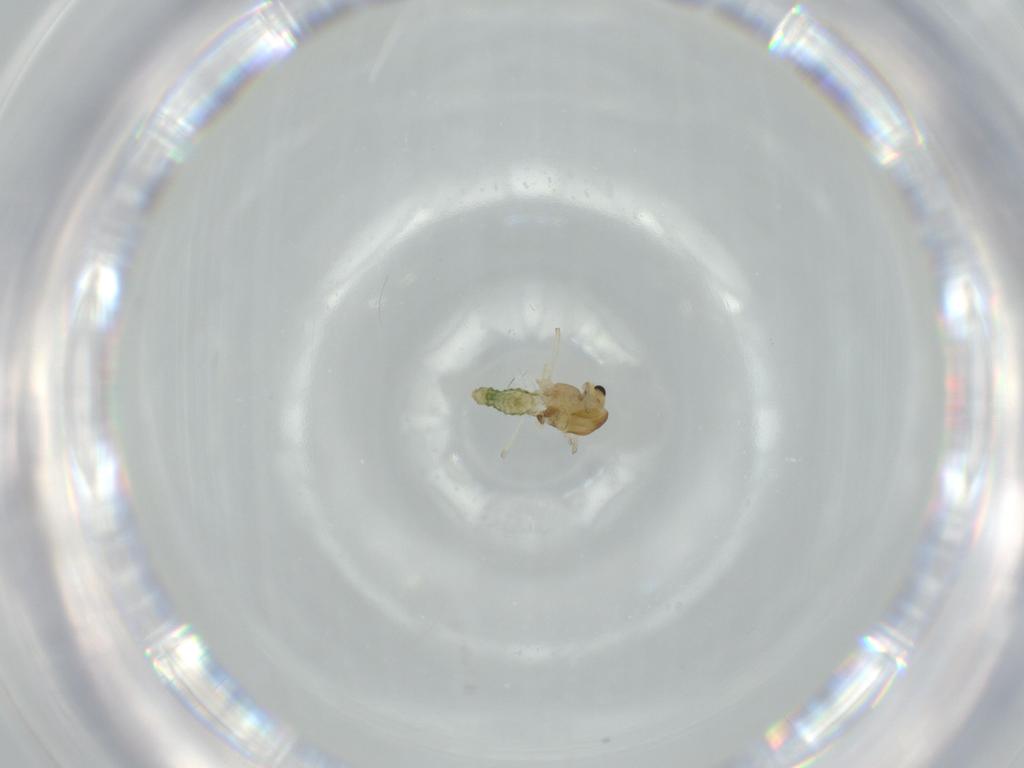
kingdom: Animalia
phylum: Arthropoda
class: Insecta
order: Diptera
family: Chironomidae
